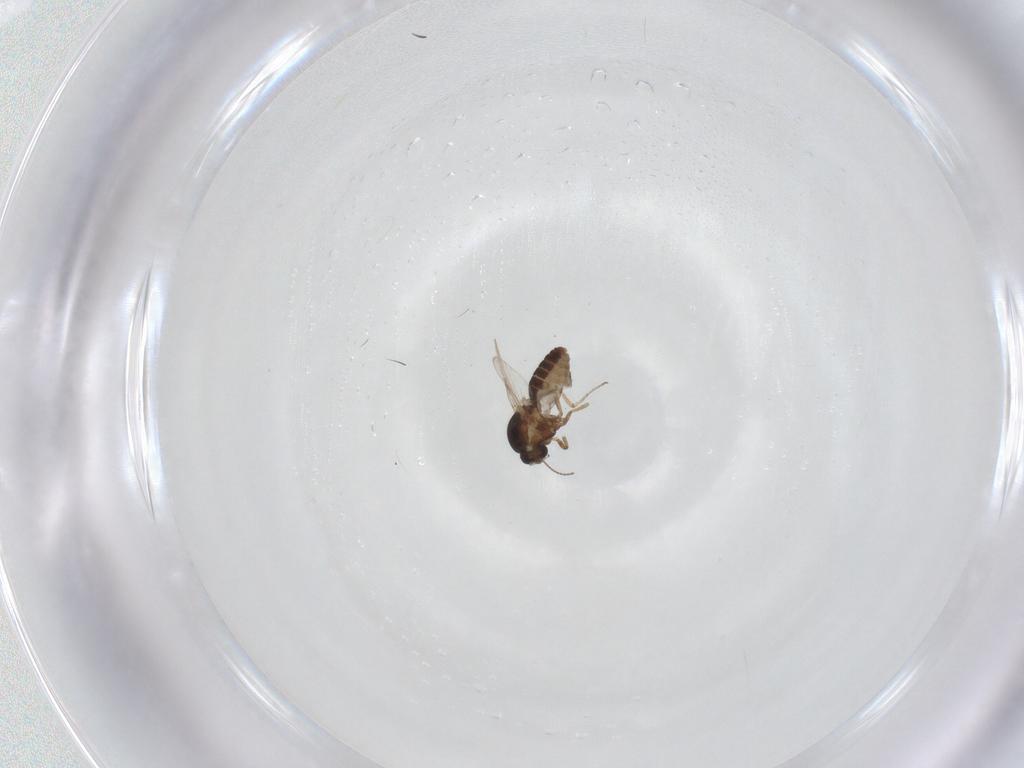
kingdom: Animalia
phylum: Arthropoda
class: Insecta
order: Diptera
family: Ceratopogonidae
